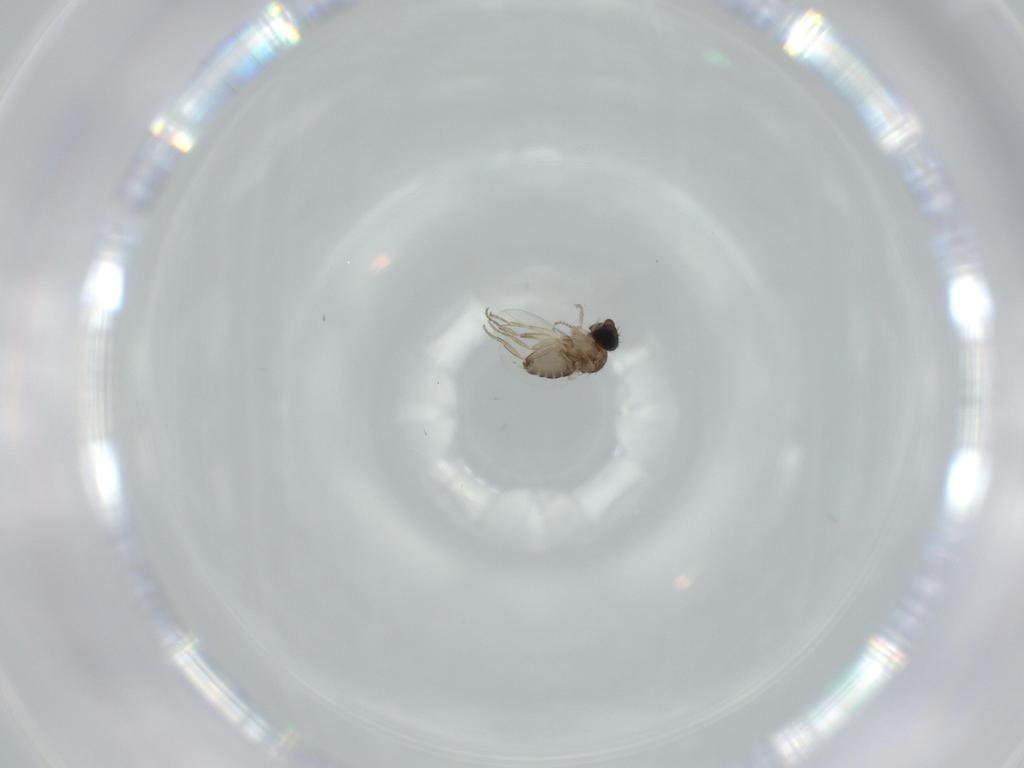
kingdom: Animalia
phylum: Arthropoda
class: Insecta
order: Diptera
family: Phoridae
